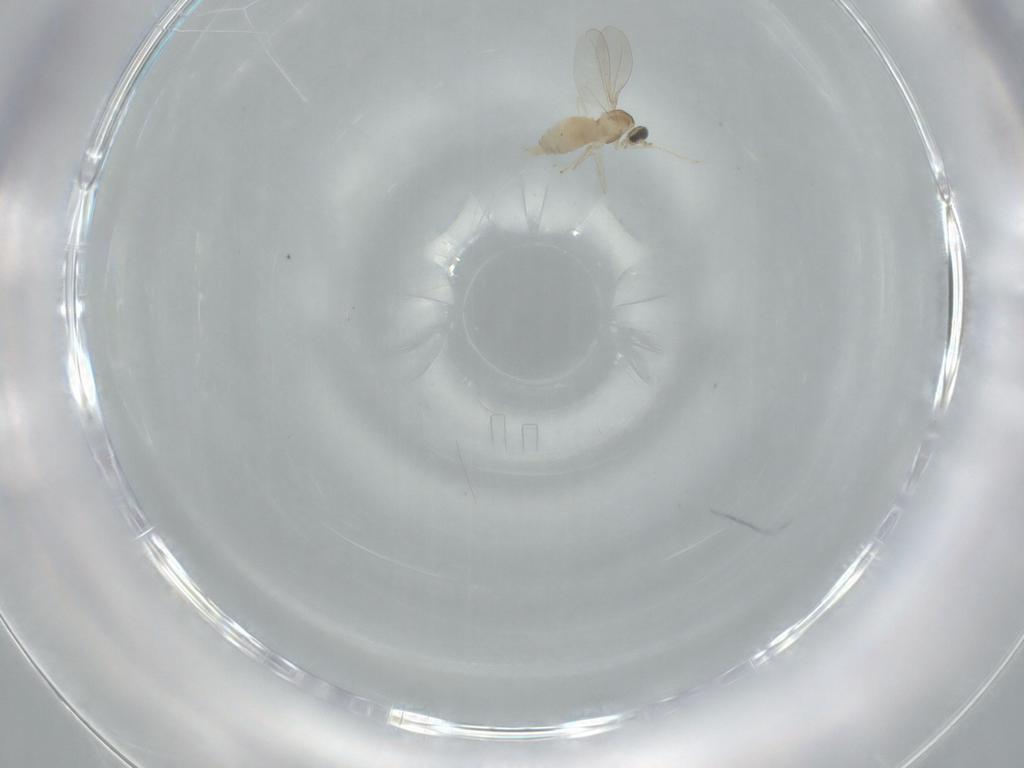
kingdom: Animalia
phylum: Arthropoda
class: Insecta
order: Diptera
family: Cecidomyiidae
